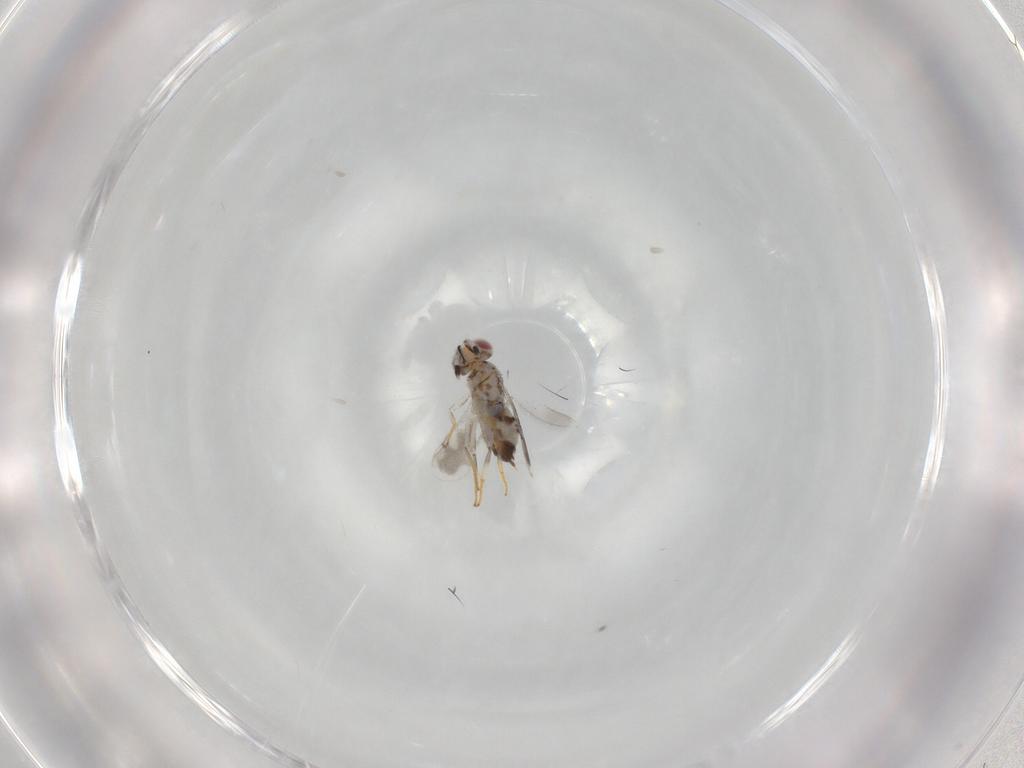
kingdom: Animalia
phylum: Arthropoda
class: Insecta
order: Hymenoptera
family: Aphelinidae
